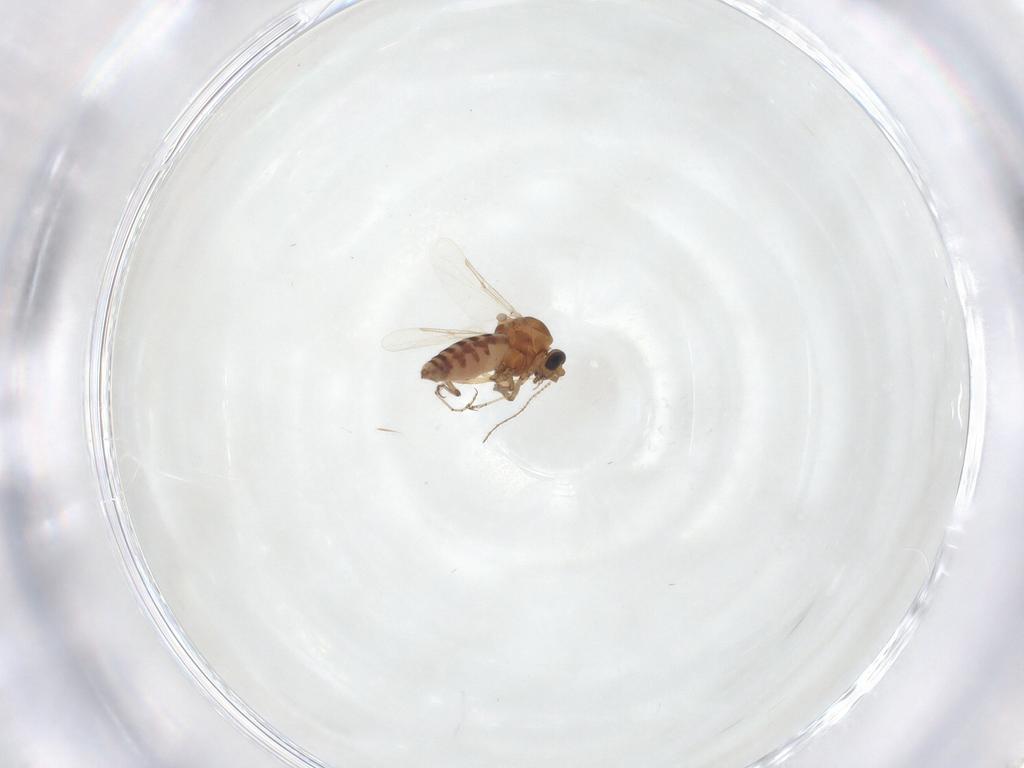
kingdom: Animalia
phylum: Arthropoda
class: Insecta
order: Diptera
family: Ceratopogonidae
